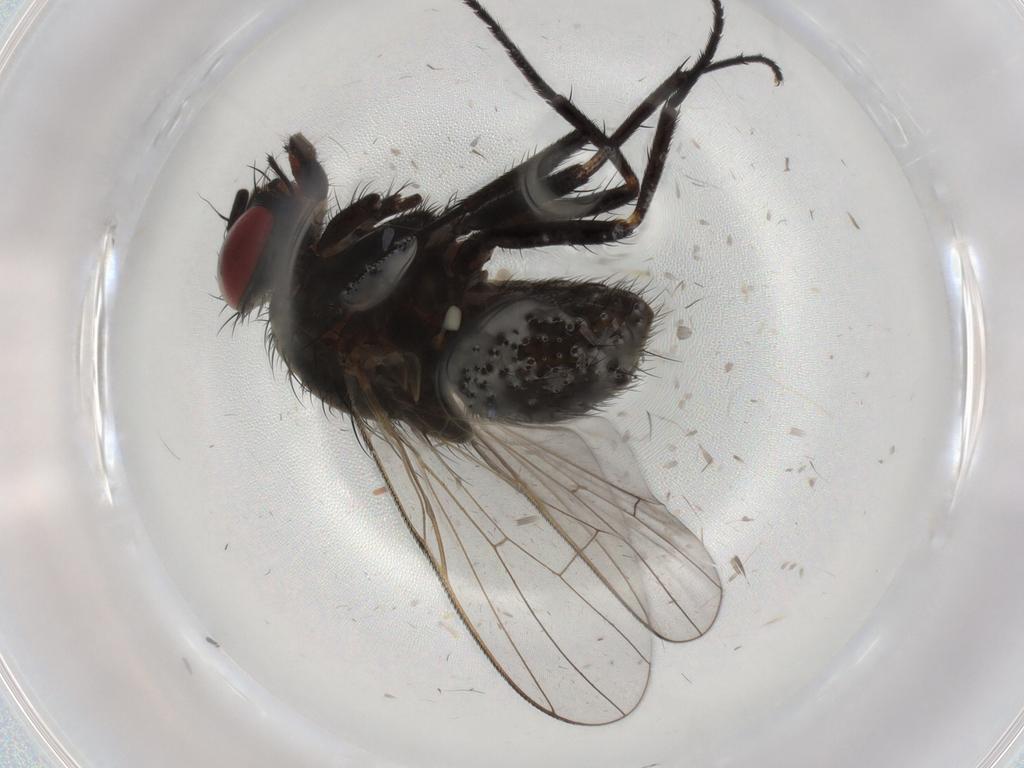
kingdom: Animalia
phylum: Arthropoda
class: Insecta
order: Diptera
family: Muscidae
